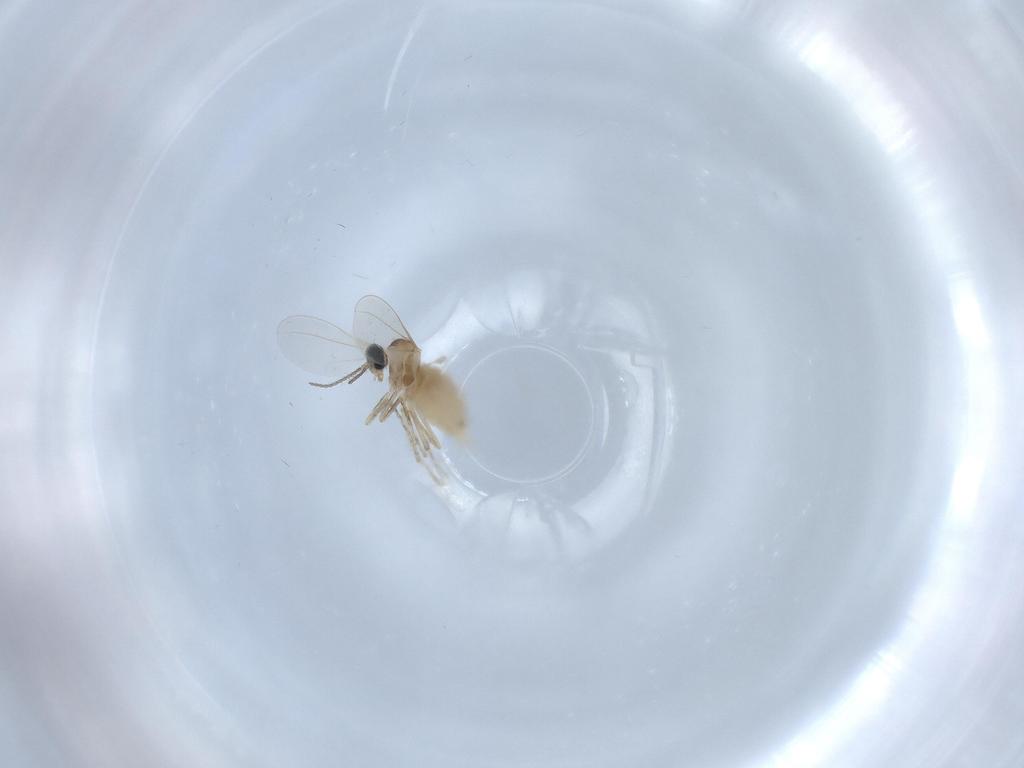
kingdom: Animalia
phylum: Arthropoda
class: Insecta
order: Diptera
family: Cecidomyiidae
